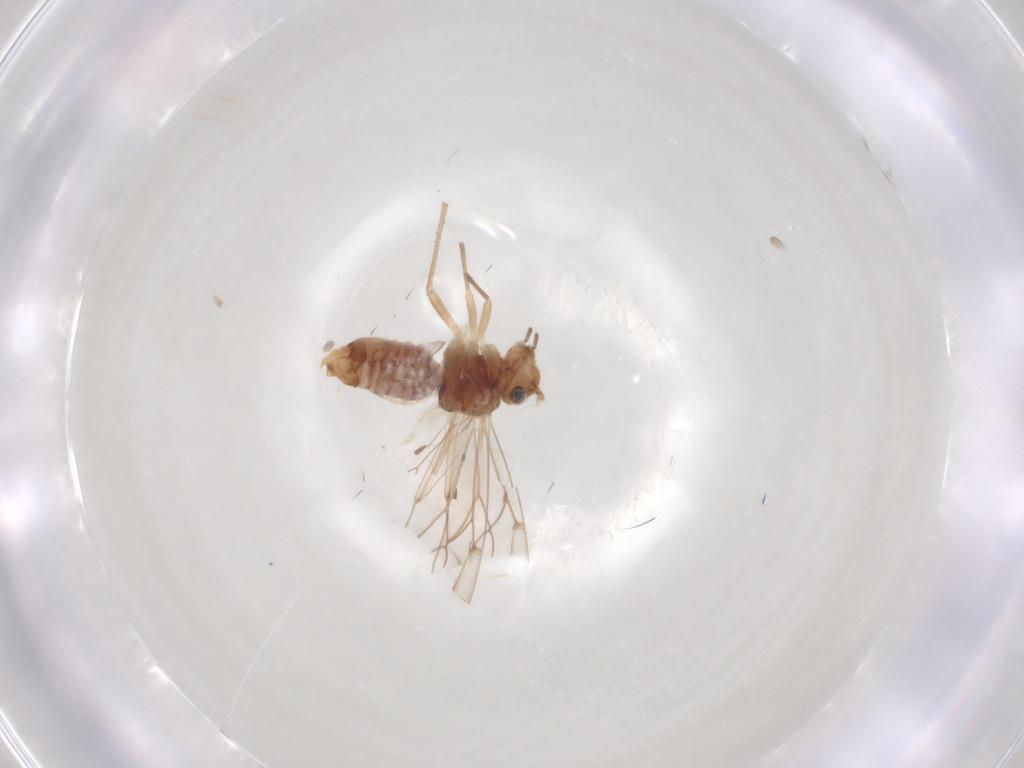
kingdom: Animalia
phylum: Arthropoda
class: Insecta
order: Psocodea
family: Lachesillidae
